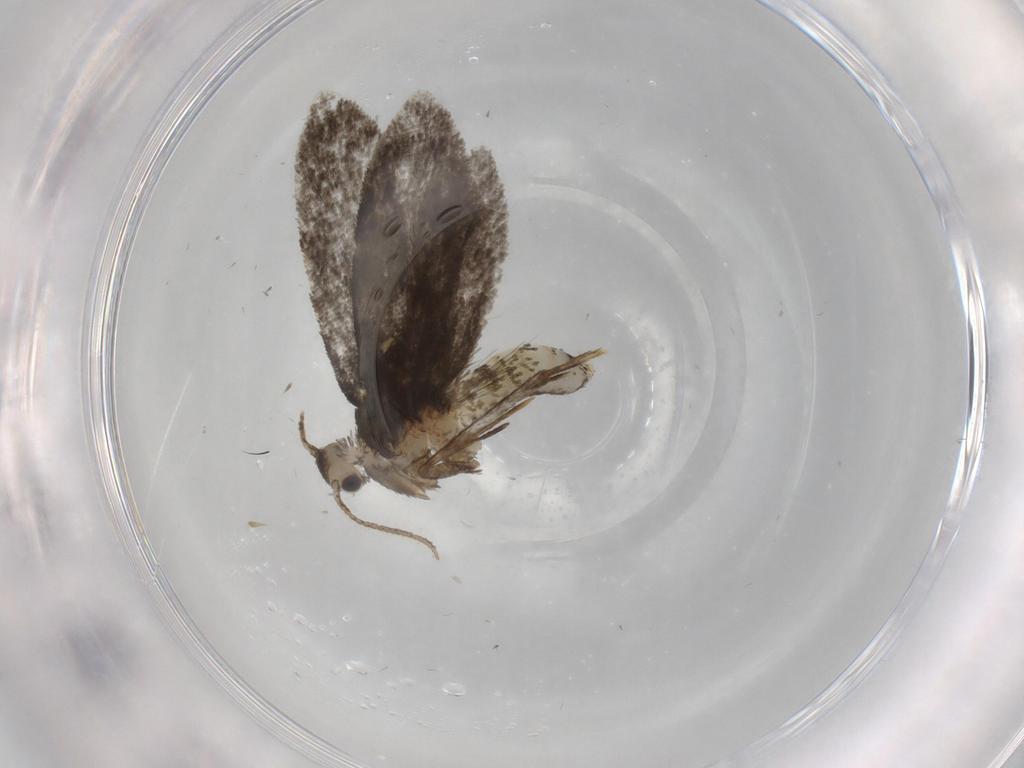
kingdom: Animalia
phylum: Arthropoda
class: Insecta
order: Lepidoptera
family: Psychidae
